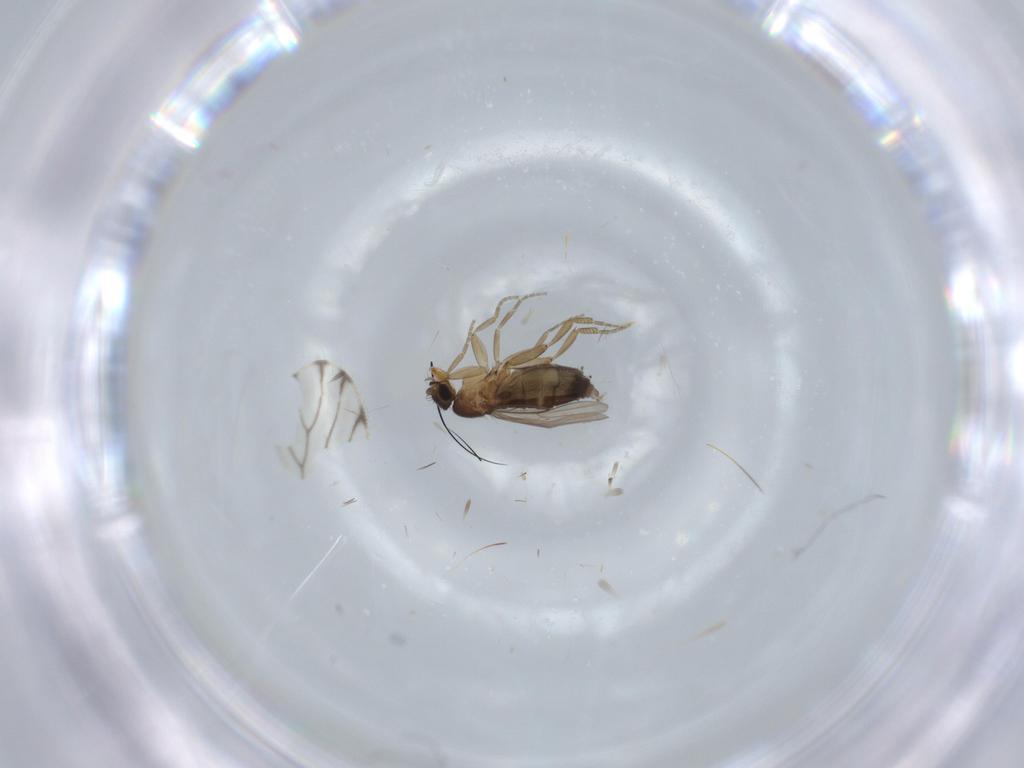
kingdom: Animalia
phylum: Arthropoda
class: Insecta
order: Diptera
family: Phoridae
